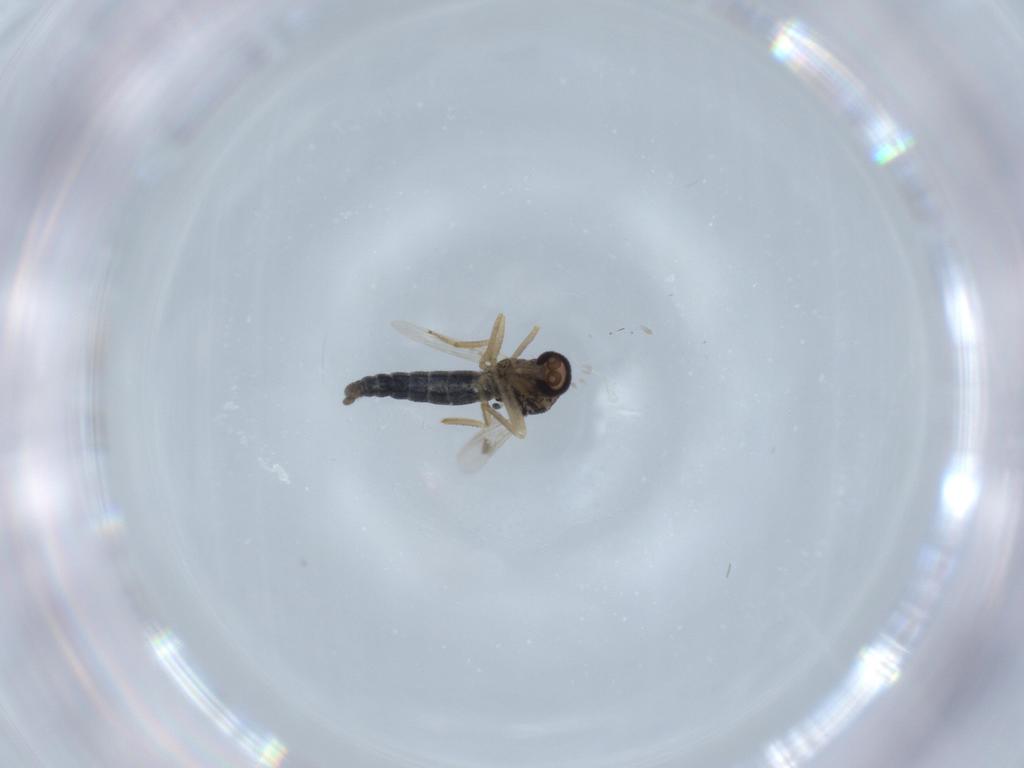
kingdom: Animalia
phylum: Arthropoda
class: Insecta
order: Diptera
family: Cecidomyiidae
